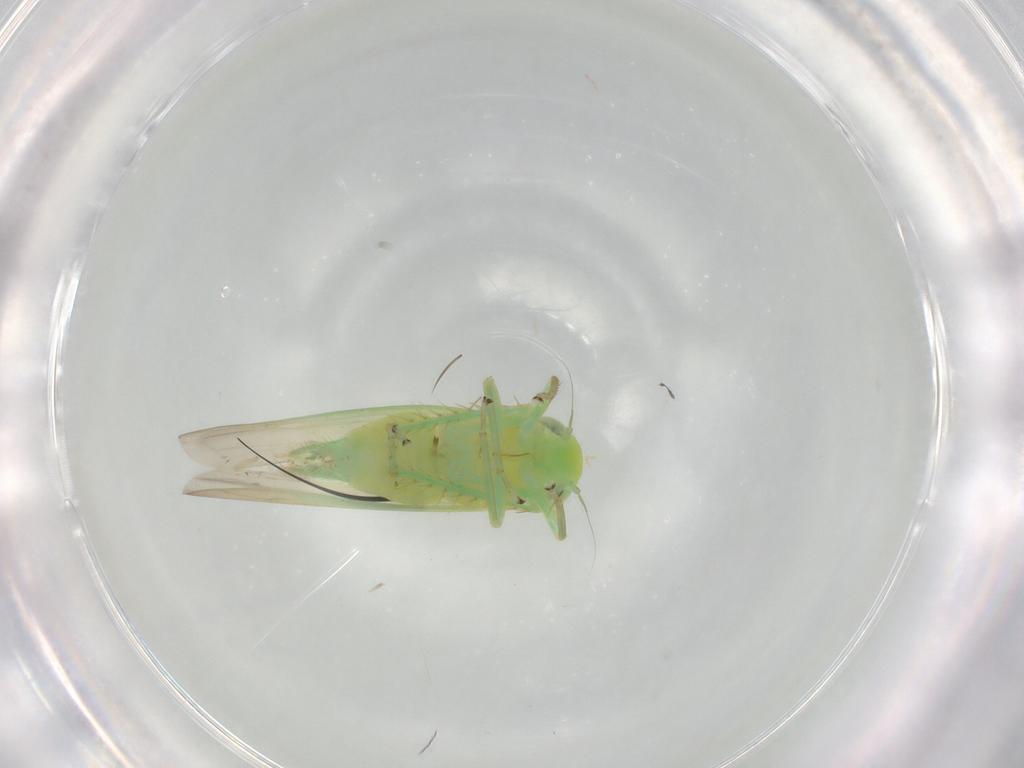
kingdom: Animalia
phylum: Arthropoda
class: Insecta
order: Hemiptera
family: Cicadellidae
